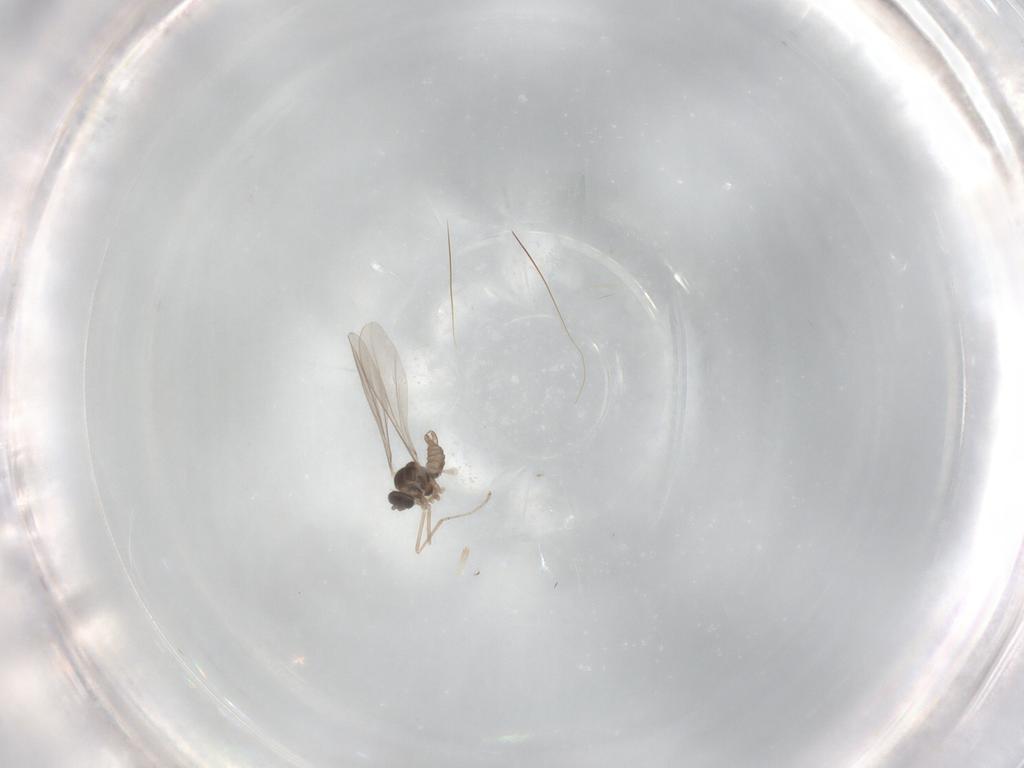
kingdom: Animalia
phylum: Arthropoda
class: Insecta
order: Diptera
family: Cecidomyiidae
